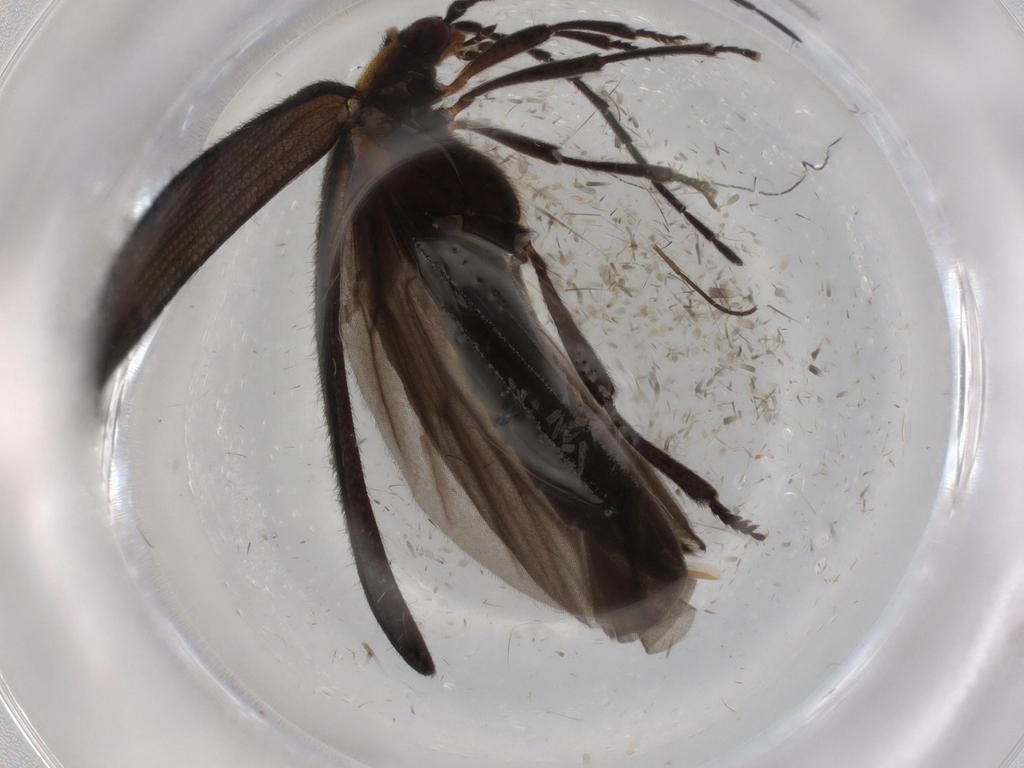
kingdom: Animalia
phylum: Arthropoda
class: Insecta
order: Coleoptera
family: Lycidae
